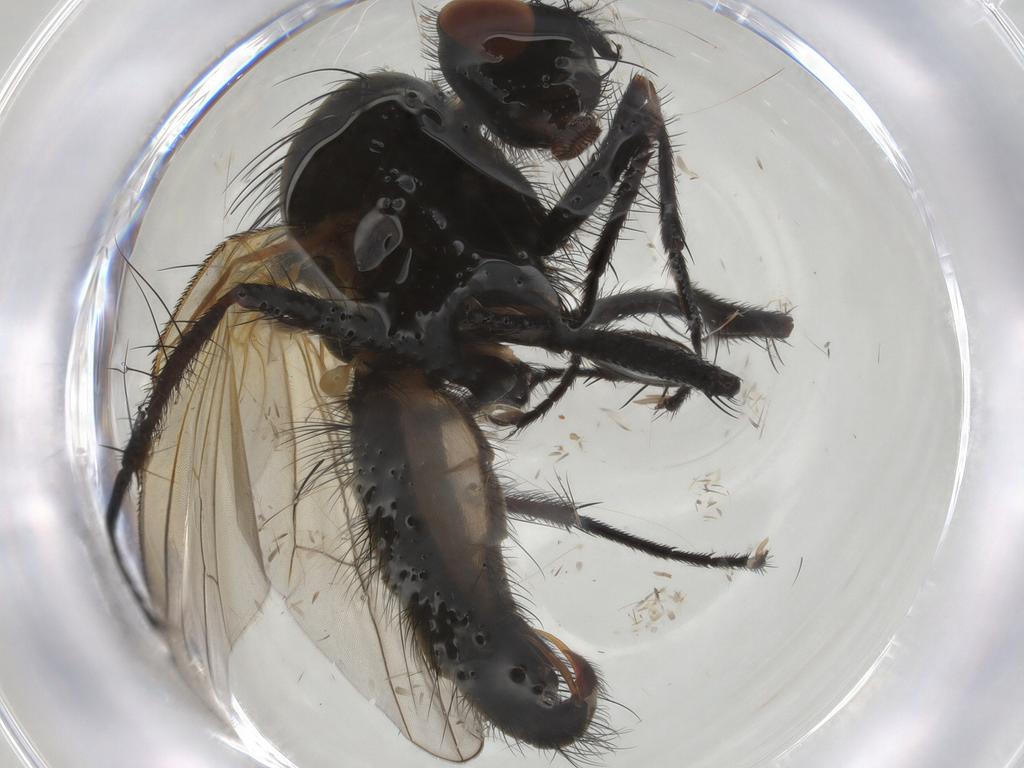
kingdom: Animalia
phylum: Arthropoda
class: Insecta
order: Diptera
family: Anthomyiidae
